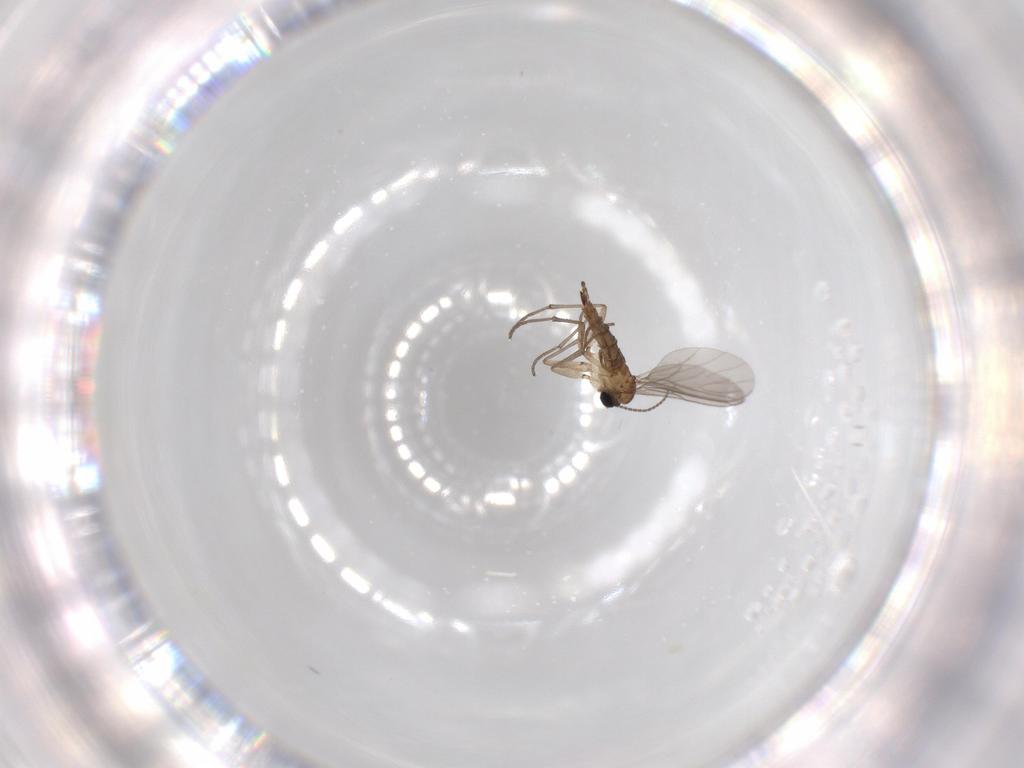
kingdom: Animalia
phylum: Arthropoda
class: Insecta
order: Diptera
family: Sciaridae
